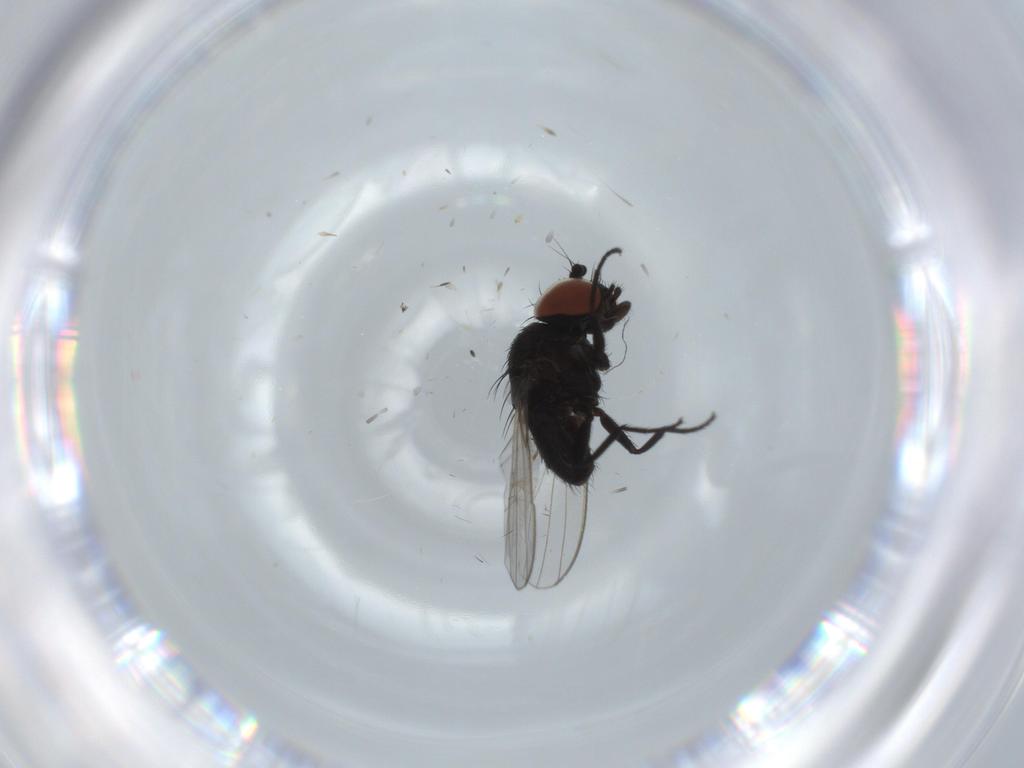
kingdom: Animalia
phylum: Arthropoda
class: Insecta
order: Diptera
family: Milichiidae
